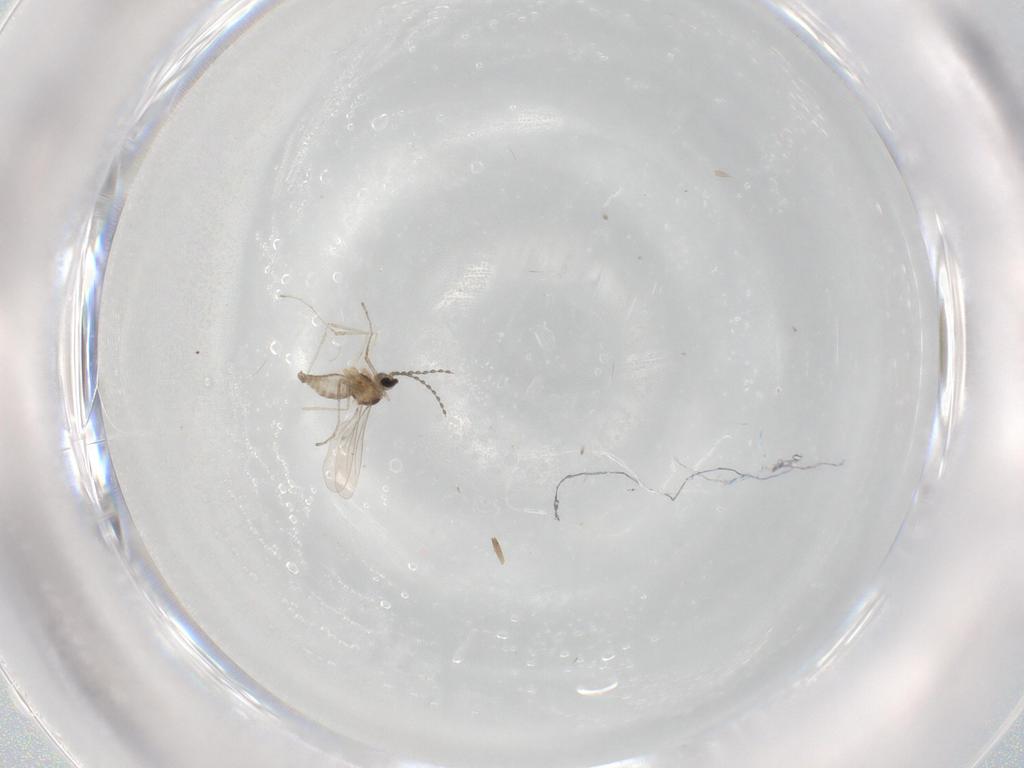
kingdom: Animalia
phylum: Arthropoda
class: Insecta
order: Diptera
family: Cecidomyiidae
